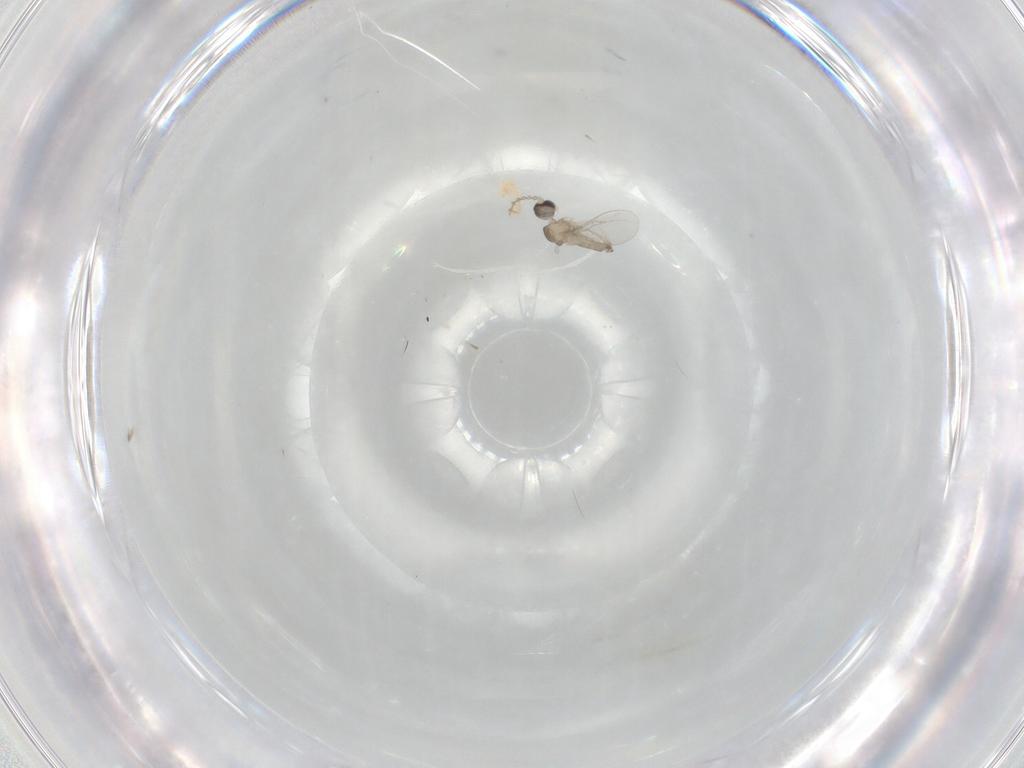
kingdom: Animalia
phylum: Arthropoda
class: Insecta
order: Diptera
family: Cecidomyiidae
